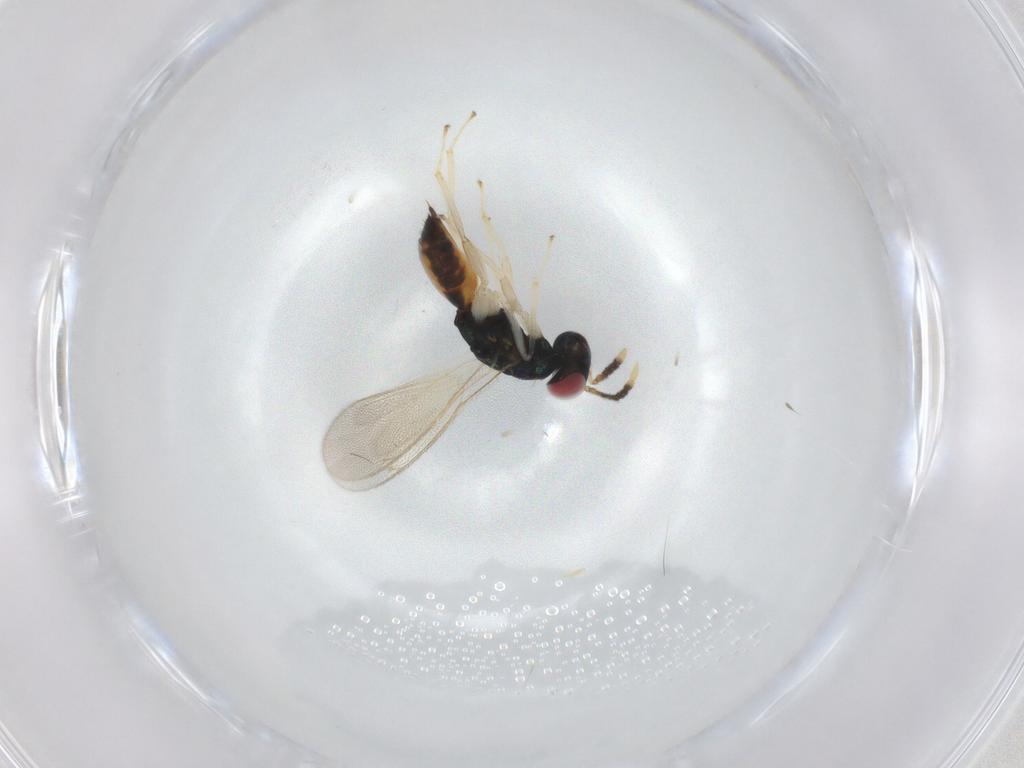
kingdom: Animalia
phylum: Arthropoda
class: Insecta
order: Hymenoptera
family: Eulophidae
